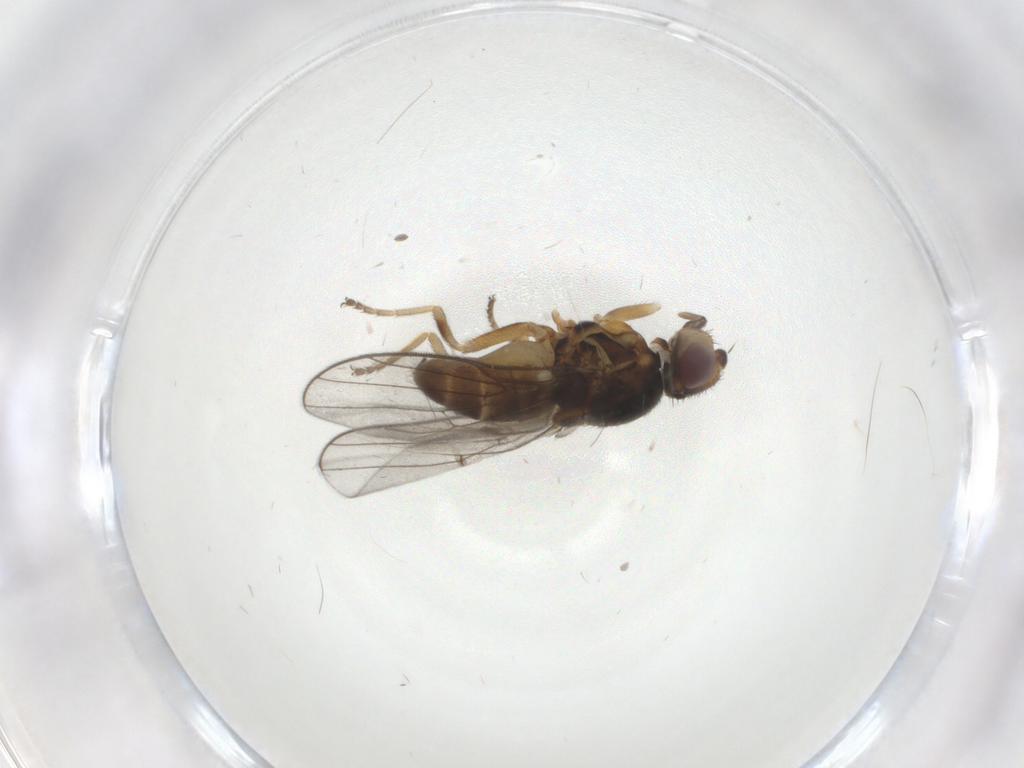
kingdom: Animalia
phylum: Arthropoda
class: Insecta
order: Diptera
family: Chloropidae
